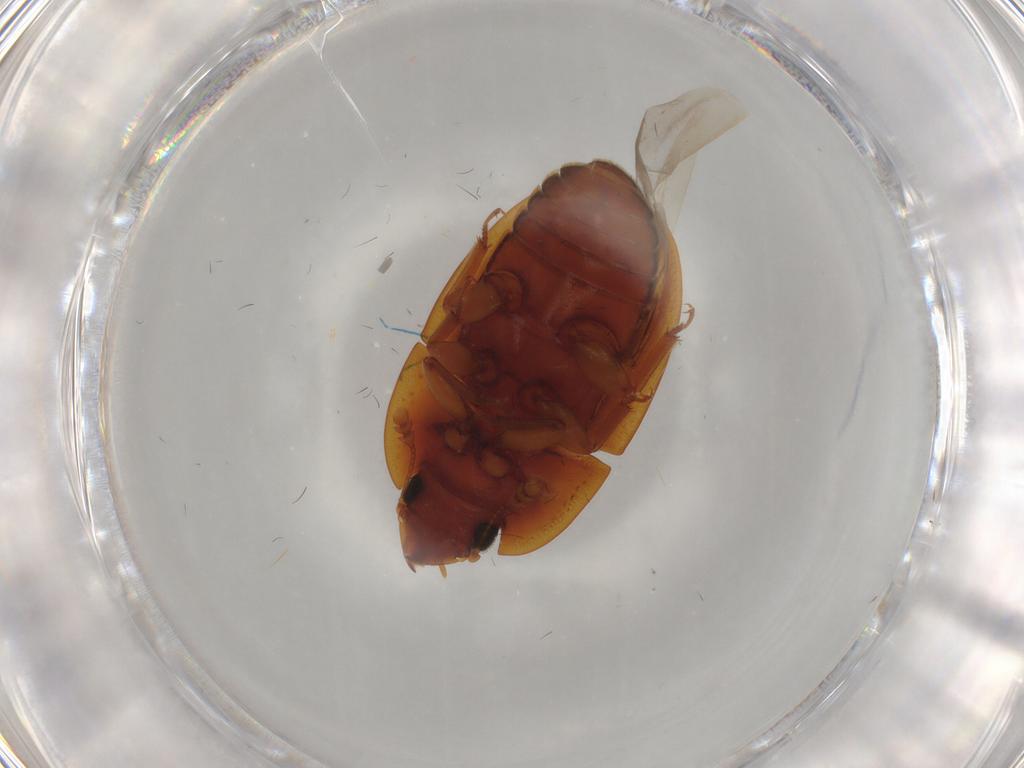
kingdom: Animalia
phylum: Arthropoda
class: Insecta
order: Coleoptera
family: Nitidulidae
